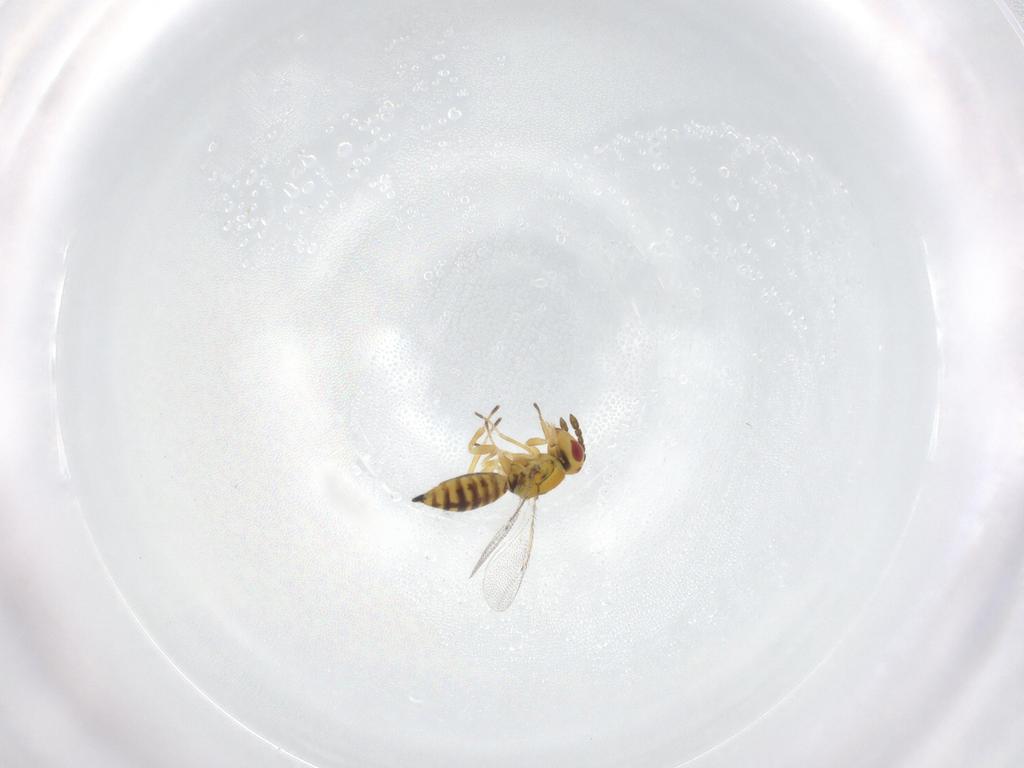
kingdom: Animalia
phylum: Arthropoda
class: Insecta
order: Hymenoptera
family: Eulophidae
